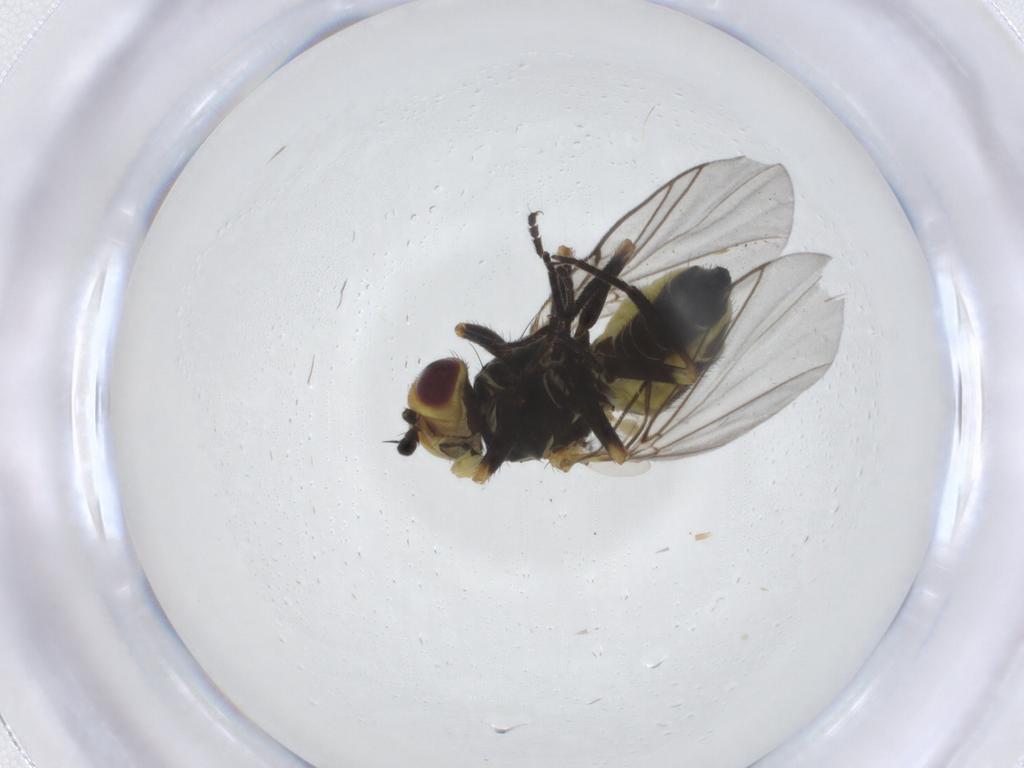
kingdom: Animalia
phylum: Arthropoda
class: Insecta
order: Diptera
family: Agromyzidae
